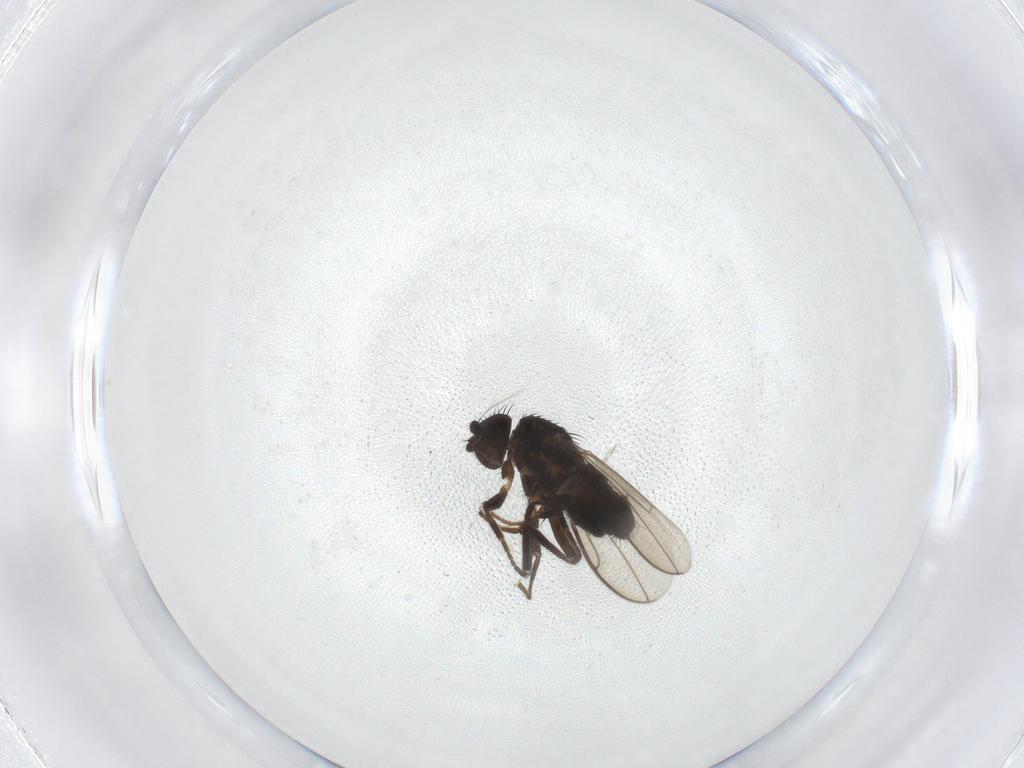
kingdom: Animalia
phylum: Arthropoda
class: Insecta
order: Diptera
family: Sphaeroceridae
